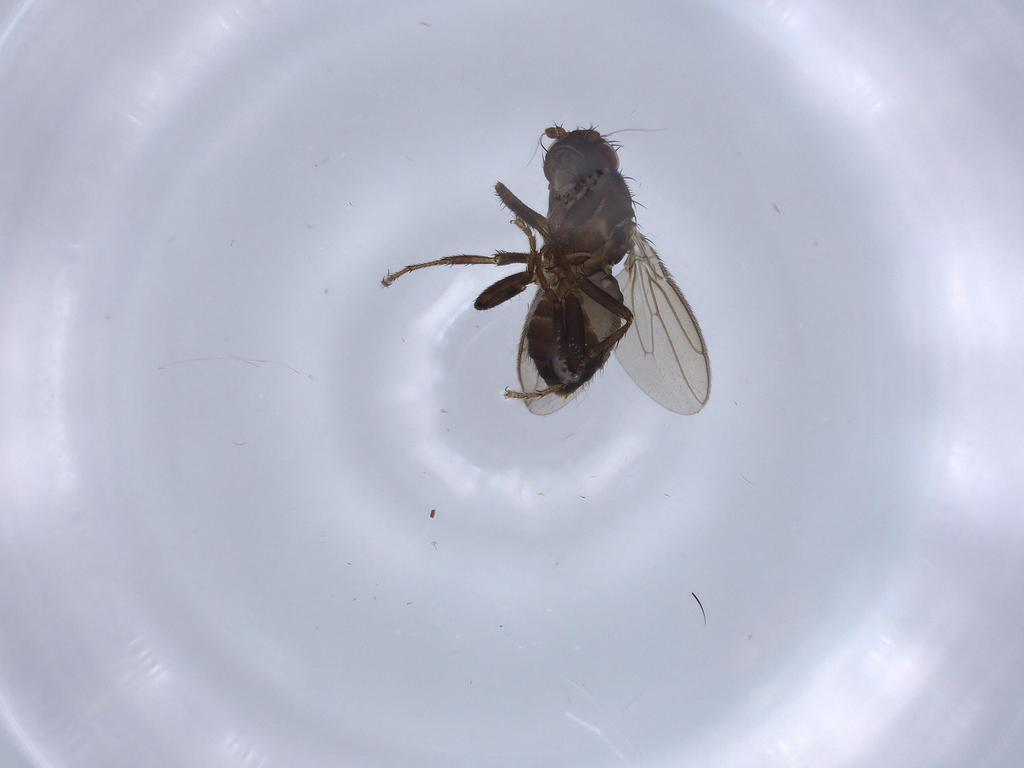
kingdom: Animalia
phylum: Arthropoda
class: Insecta
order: Diptera
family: Sphaeroceridae
